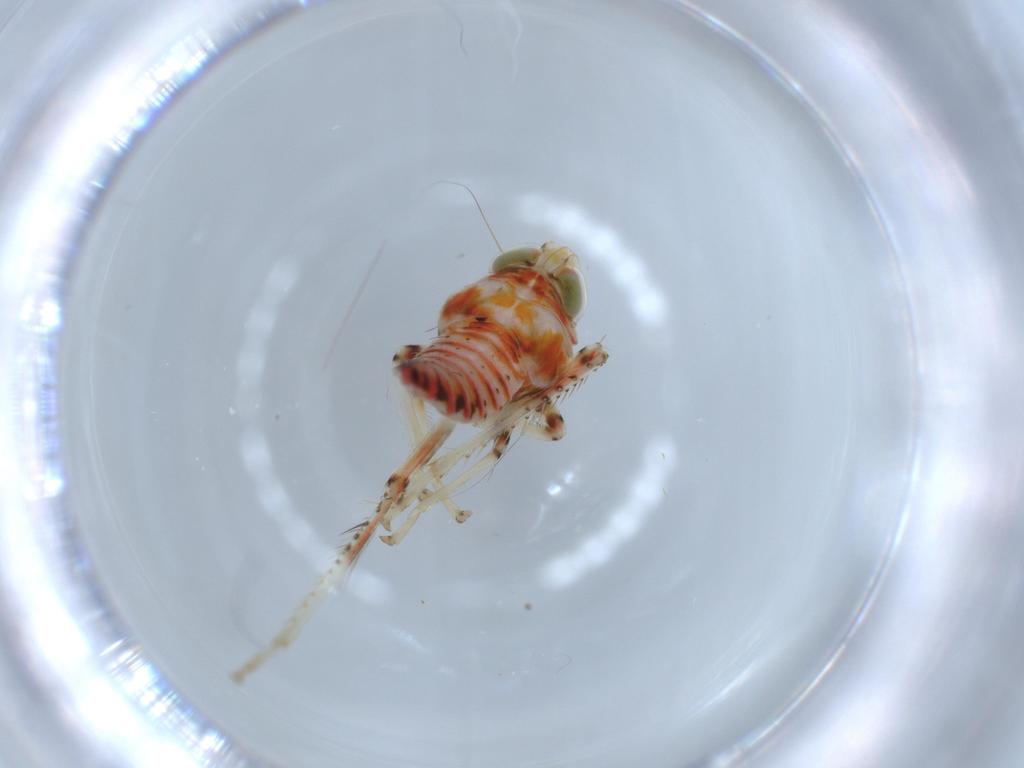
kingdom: Animalia
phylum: Arthropoda
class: Insecta
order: Hemiptera
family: Cicadellidae
